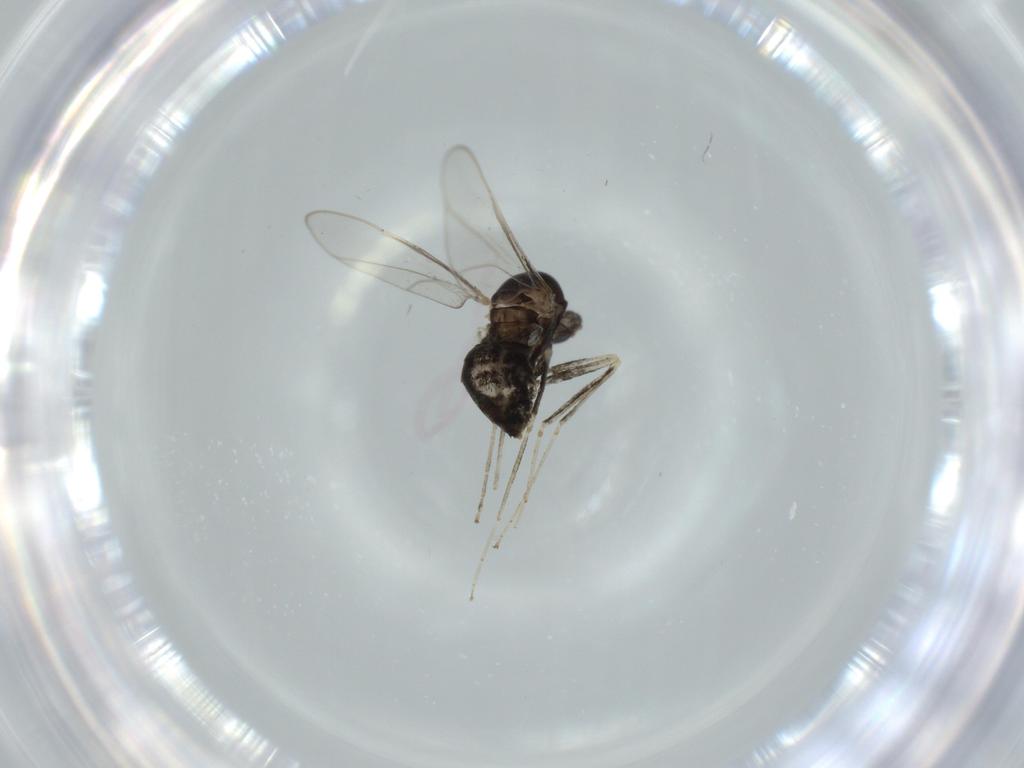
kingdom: Animalia
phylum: Arthropoda
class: Insecta
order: Diptera
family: Cecidomyiidae
